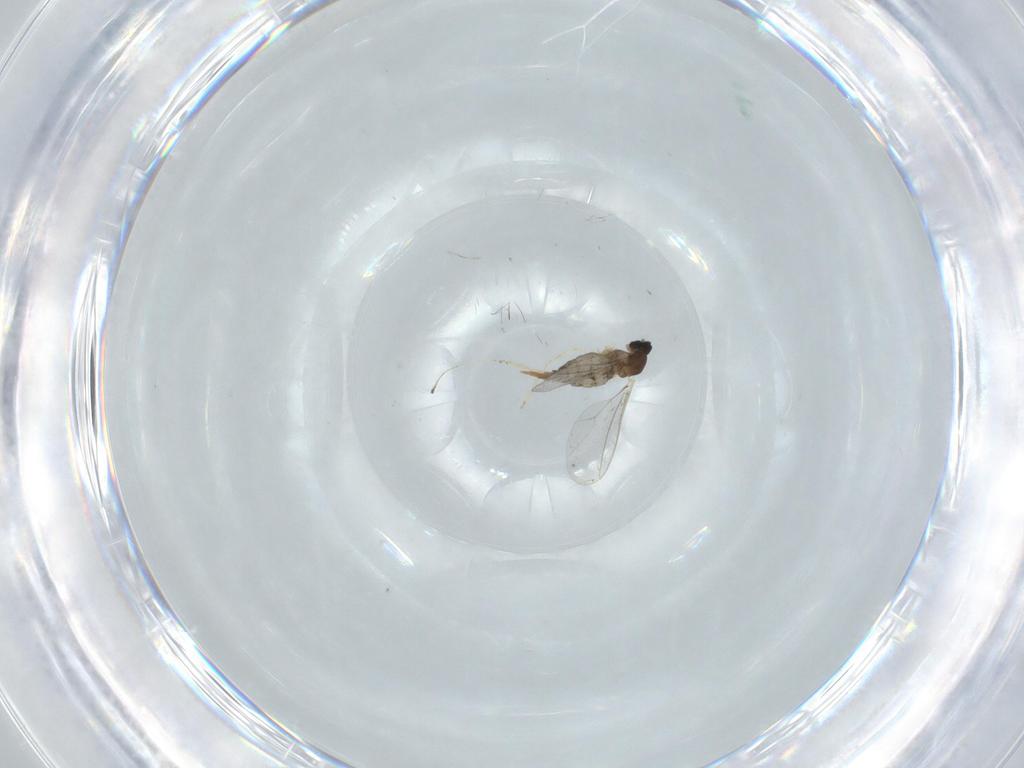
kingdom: Animalia
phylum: Arthropoda
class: Insecta
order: Diptera
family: Cecidomyiidae
